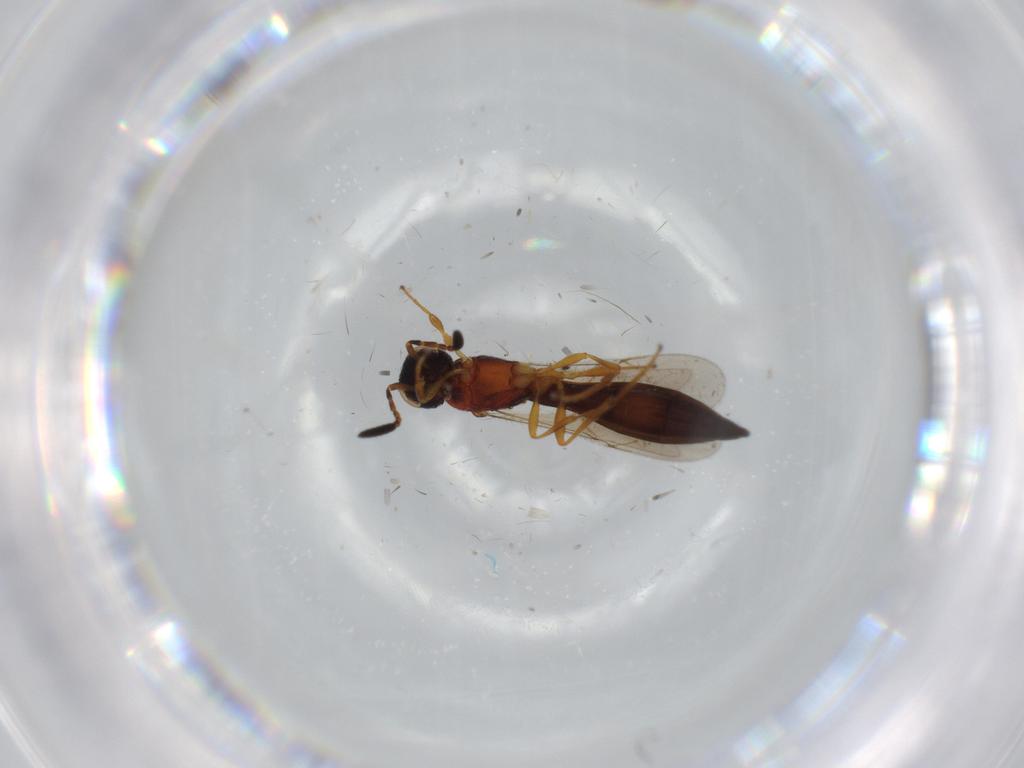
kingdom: Animalia
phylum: Arthropoda
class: Insecta
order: Hymenoptera
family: Scelionidae
